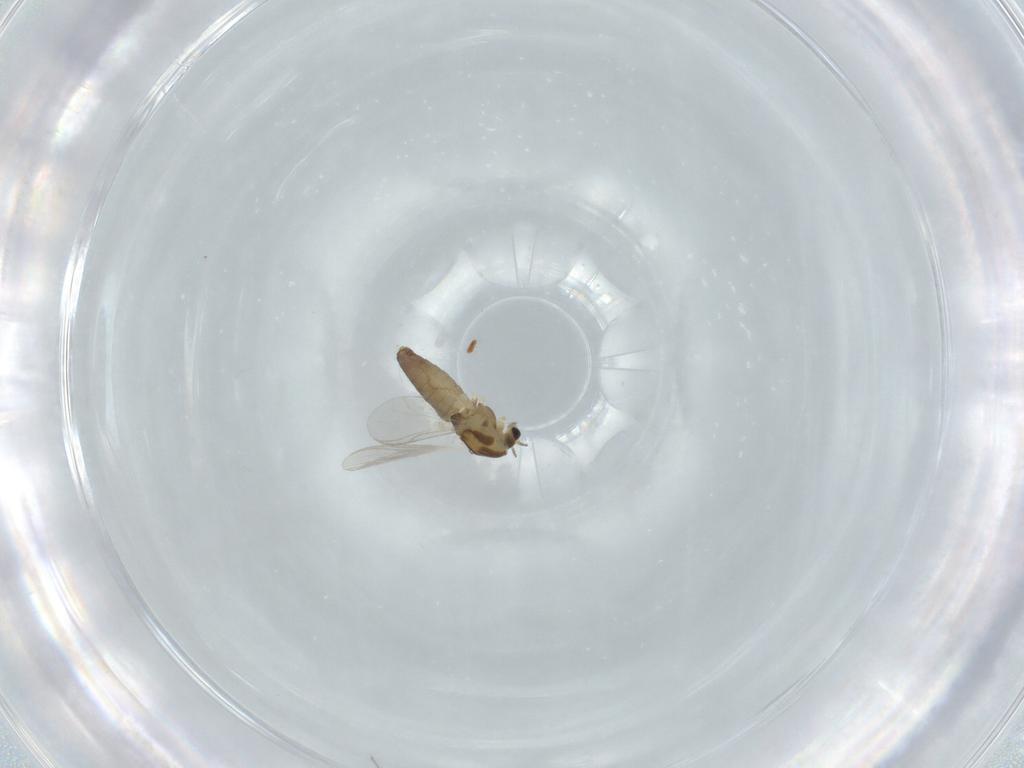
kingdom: Animalia
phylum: Arthropoda
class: Insecta
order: Diptera
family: Chironomidae
